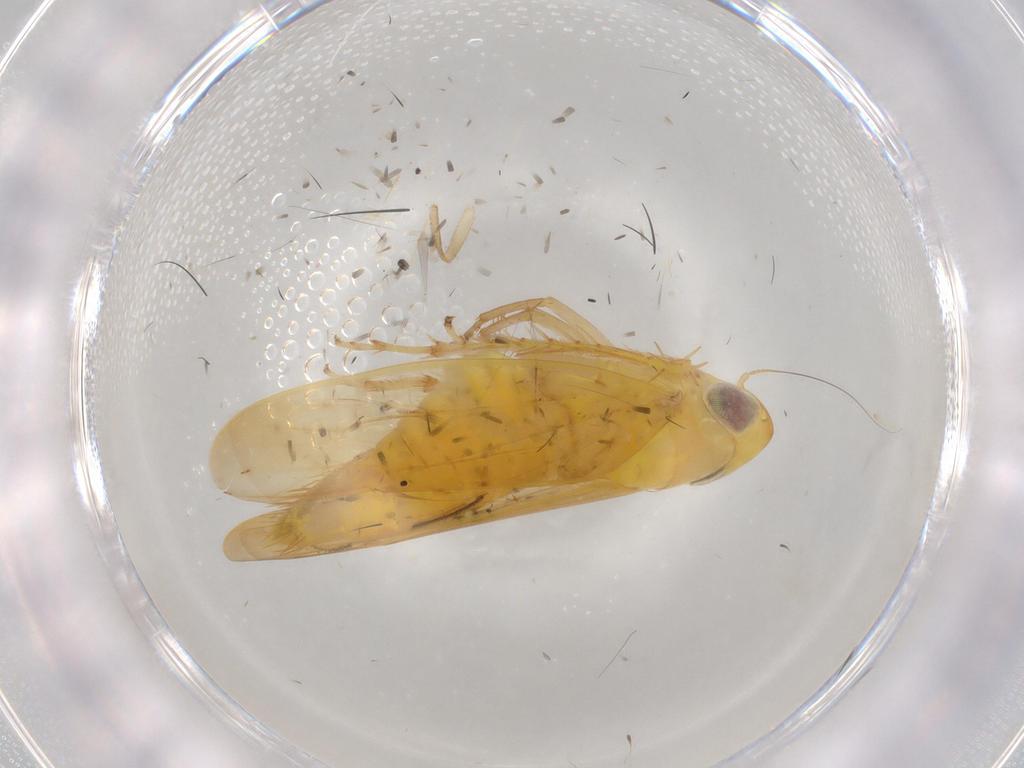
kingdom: Animalia
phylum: Arthropoda
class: Insecta
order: Hemiptera
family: Cicadellidae
